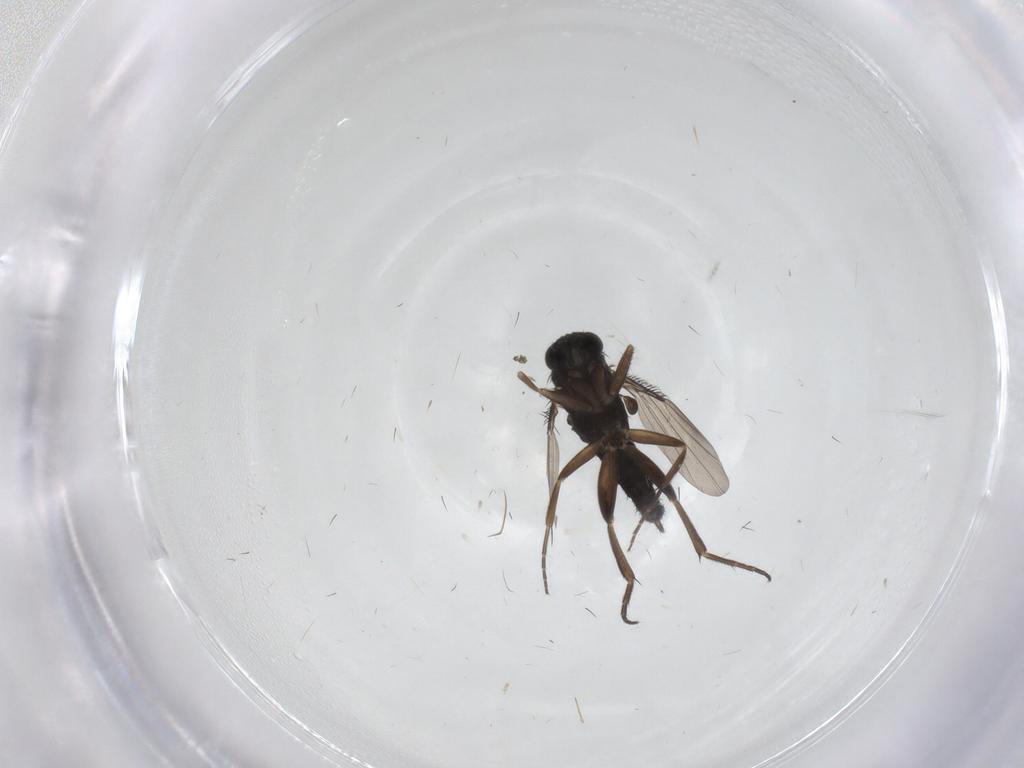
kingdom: Animalia
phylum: Arthropoda
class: Insecta
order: Diptera
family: Phoridae
